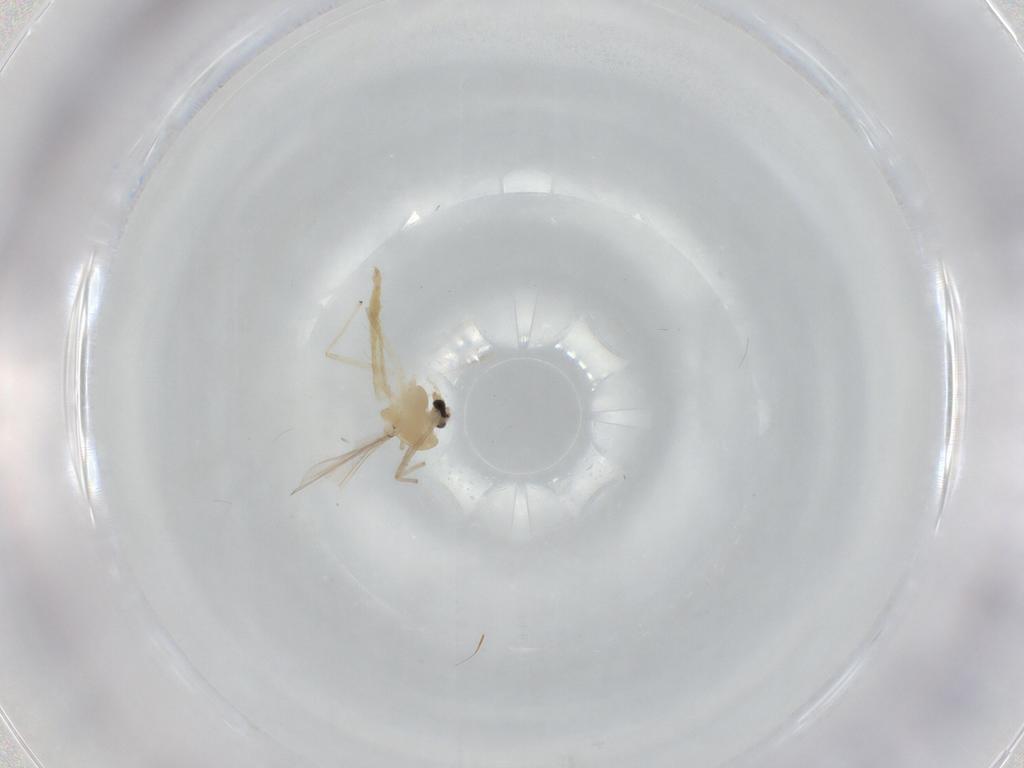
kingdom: Animalia
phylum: Arthropoda
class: Insecta
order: Diptera
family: Chironomidae
